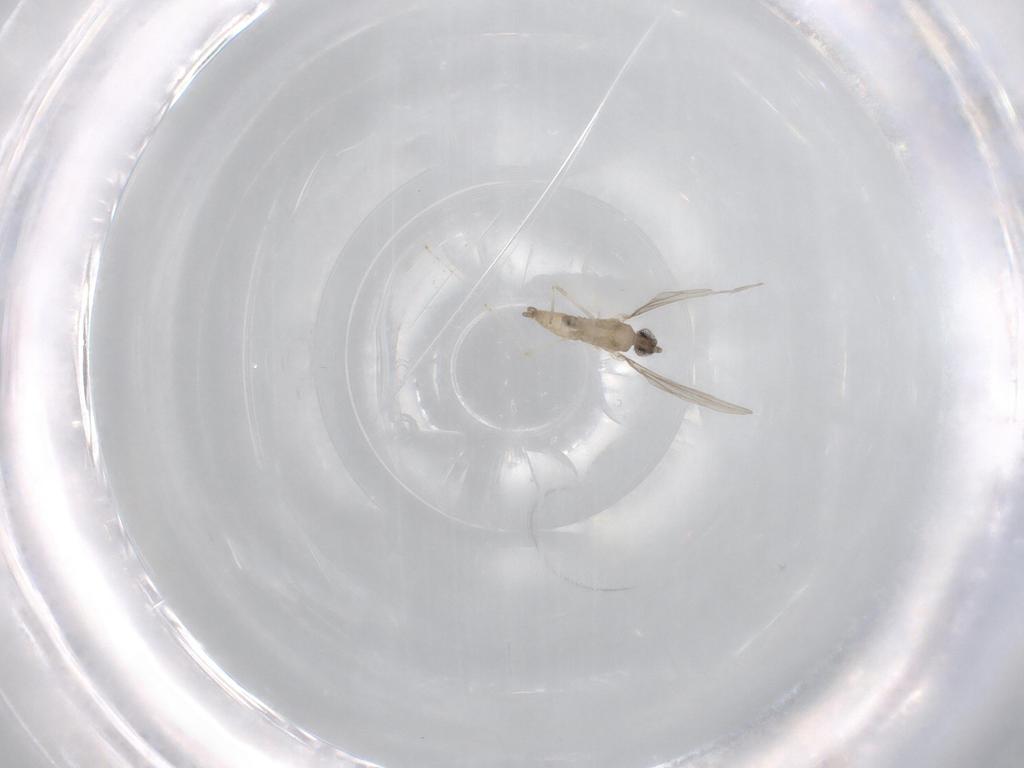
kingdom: Animalia
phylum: Arthropoda
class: Insecta
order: Diptera
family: Cecidomyiidae
